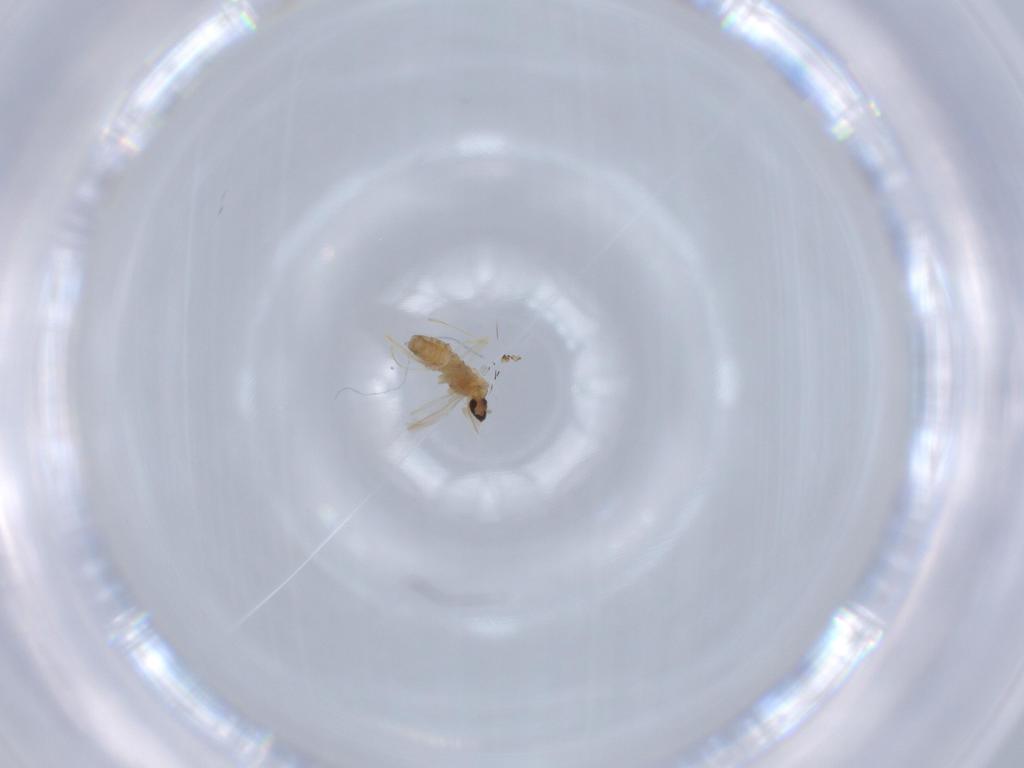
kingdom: Animalia
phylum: Arthropoda
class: Insecta
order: Diptera
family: Cecidomyiidae
